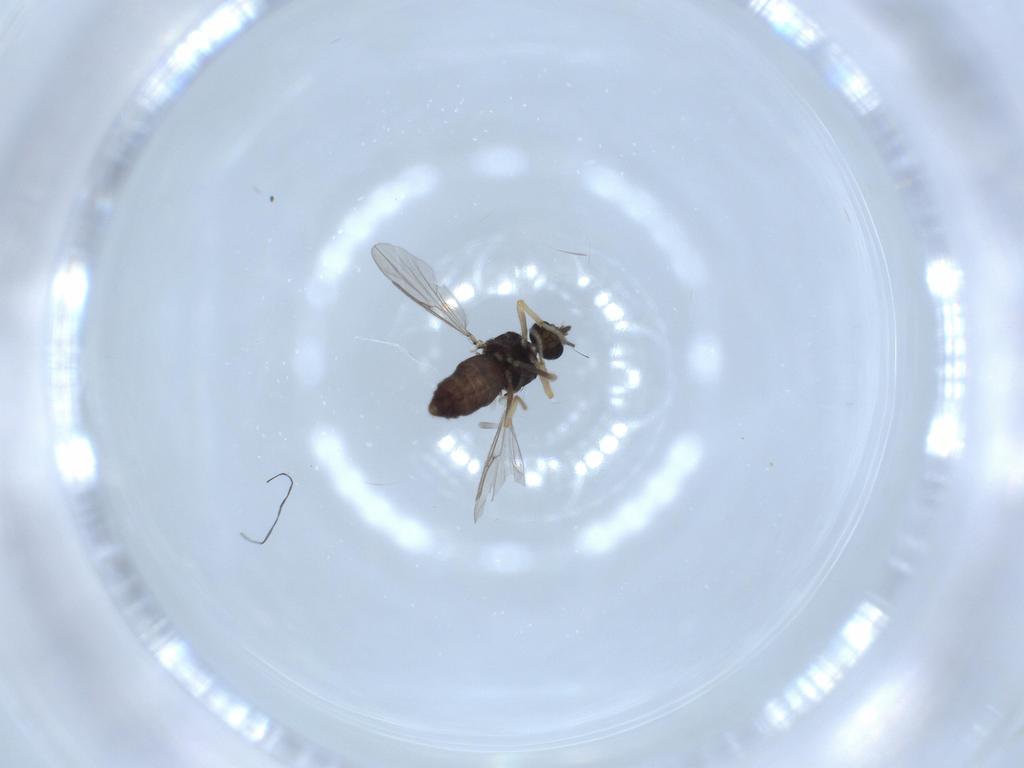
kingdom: Animalia
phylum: Arthropoda
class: Insecta
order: Diptera
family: Ceratopogonidae
